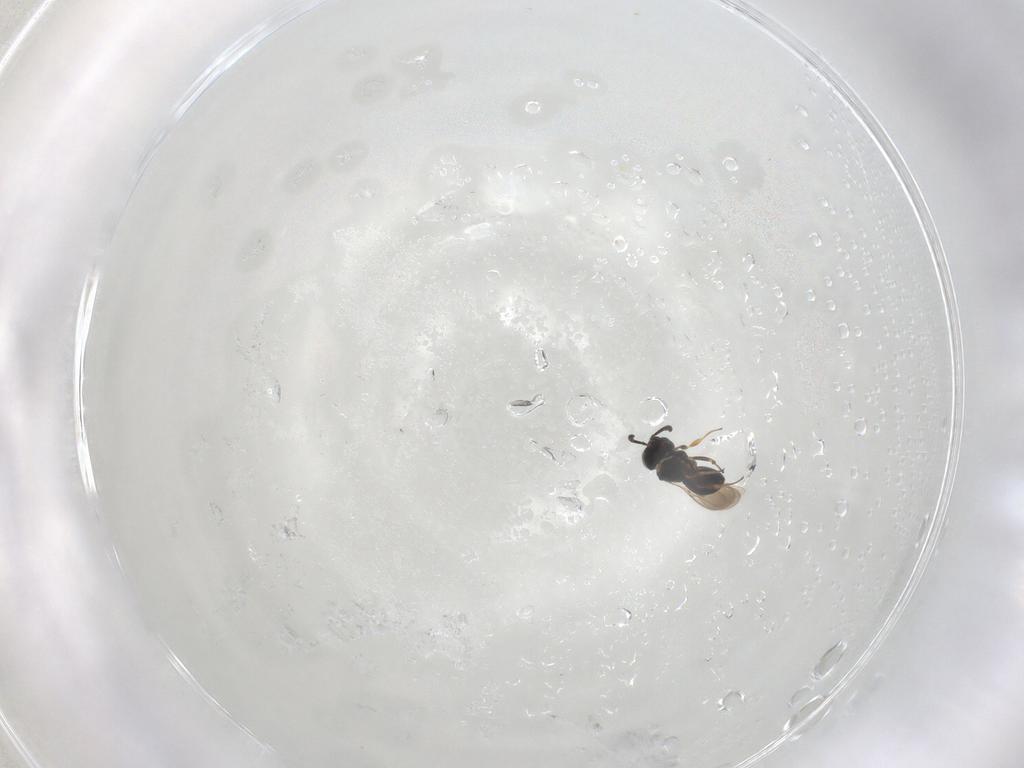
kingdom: Animalia
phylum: Arthropoda
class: Insecta
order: Hymenoptera
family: Scelionidae
